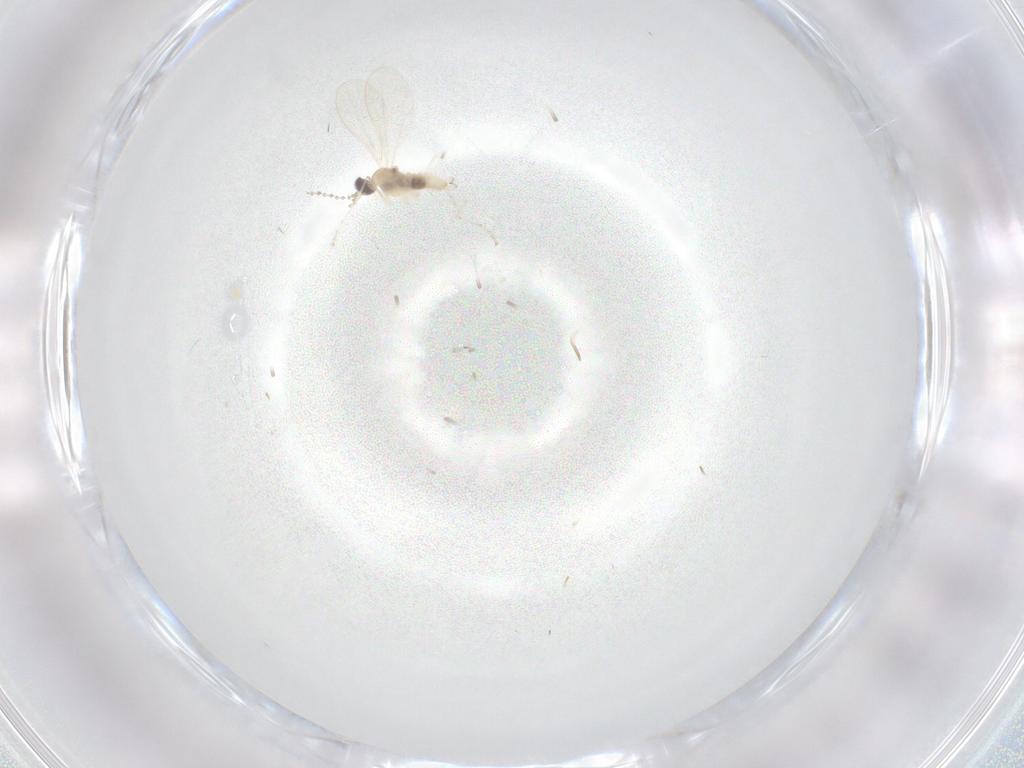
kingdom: Animalia
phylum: Arthropoda
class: Insecta
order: Diptera
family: Cecidomyiidae
